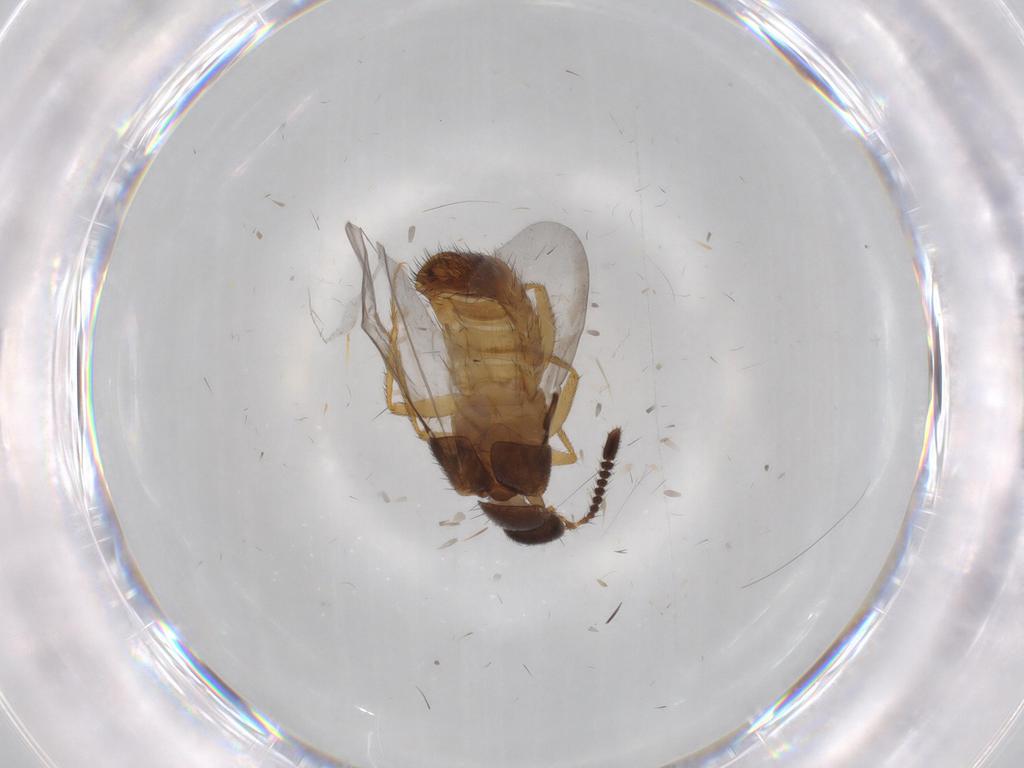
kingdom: Animalia
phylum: Arthropoda
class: Insecta
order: Coleoptera
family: Staphylinidae
